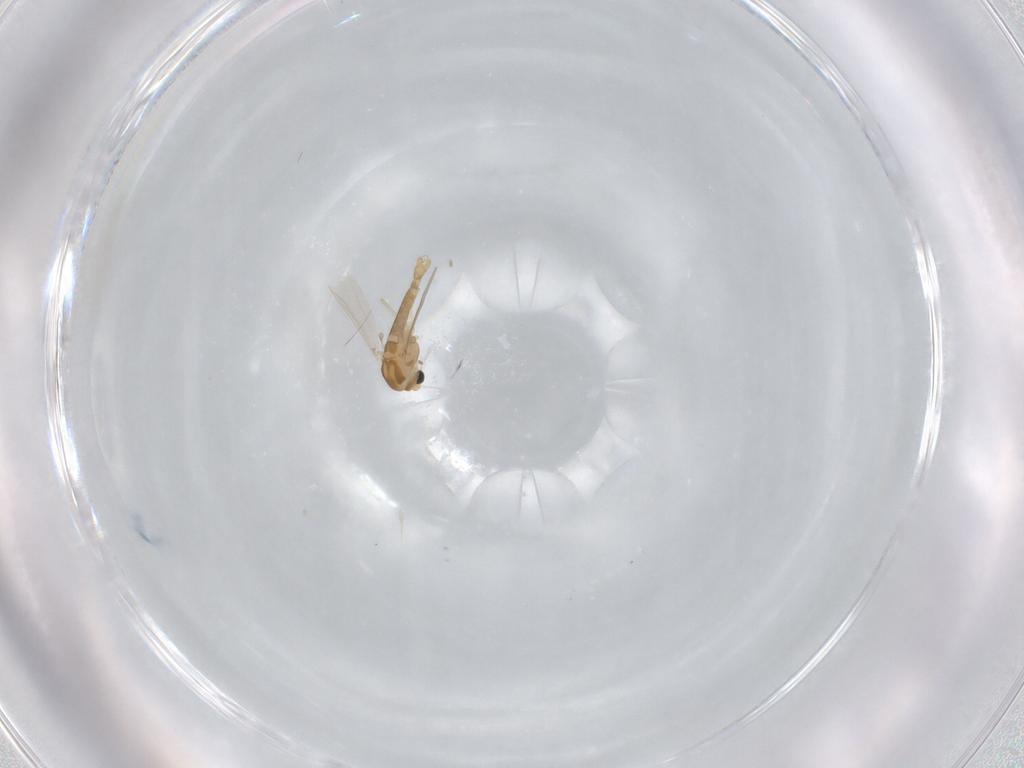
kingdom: Animalia
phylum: Arthropoda
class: Insecta
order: Diptera
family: Chironomidae
